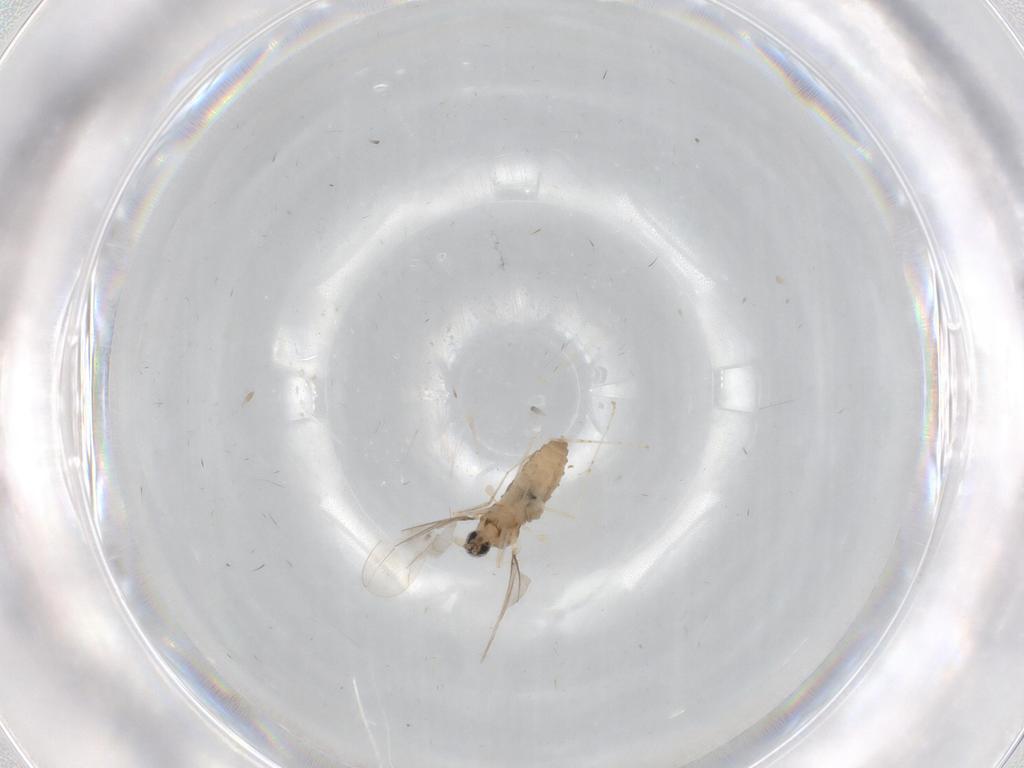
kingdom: Animalia
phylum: Arthropoda
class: Insecta
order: Diptera
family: Cecidomyiidae
